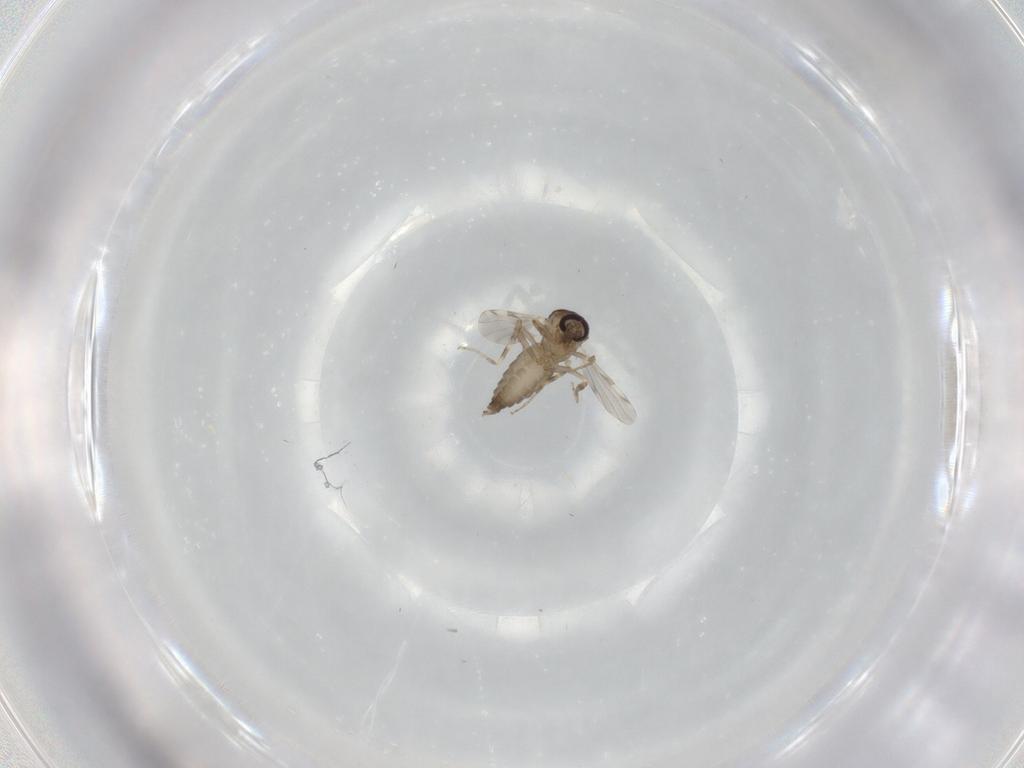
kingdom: Animalia
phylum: Arthropoda
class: Insecta
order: Diptera
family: Ceratopogonidae
